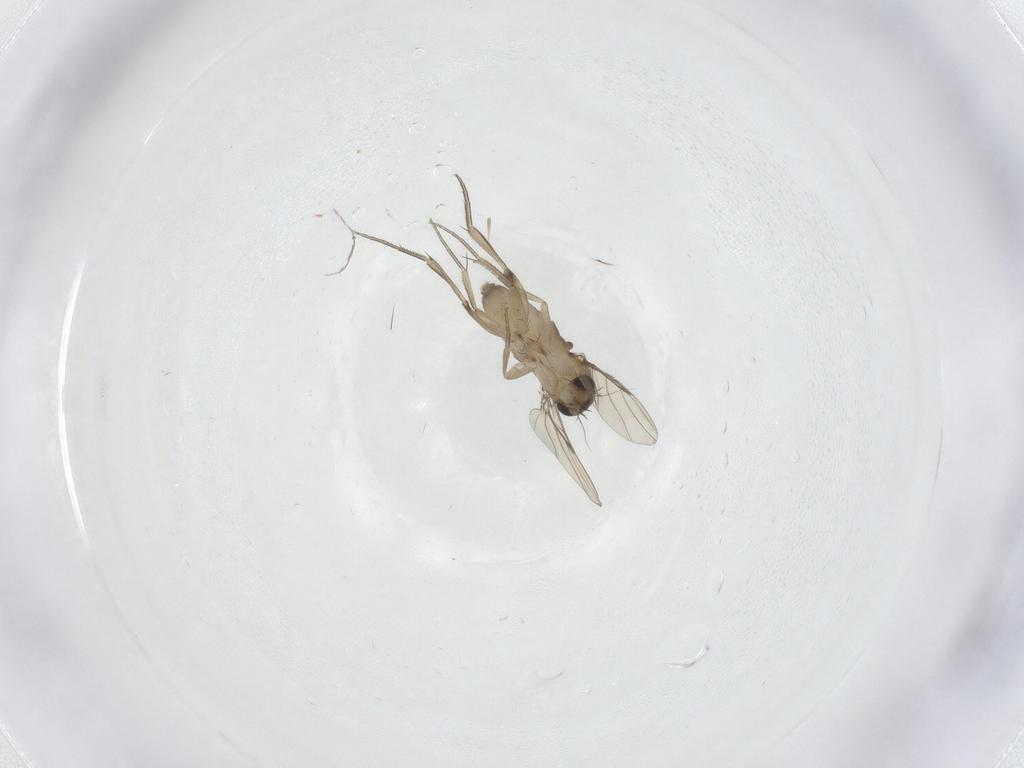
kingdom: Animalia
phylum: Arthropoda
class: Insecta
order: Diptera
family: Phoridae
